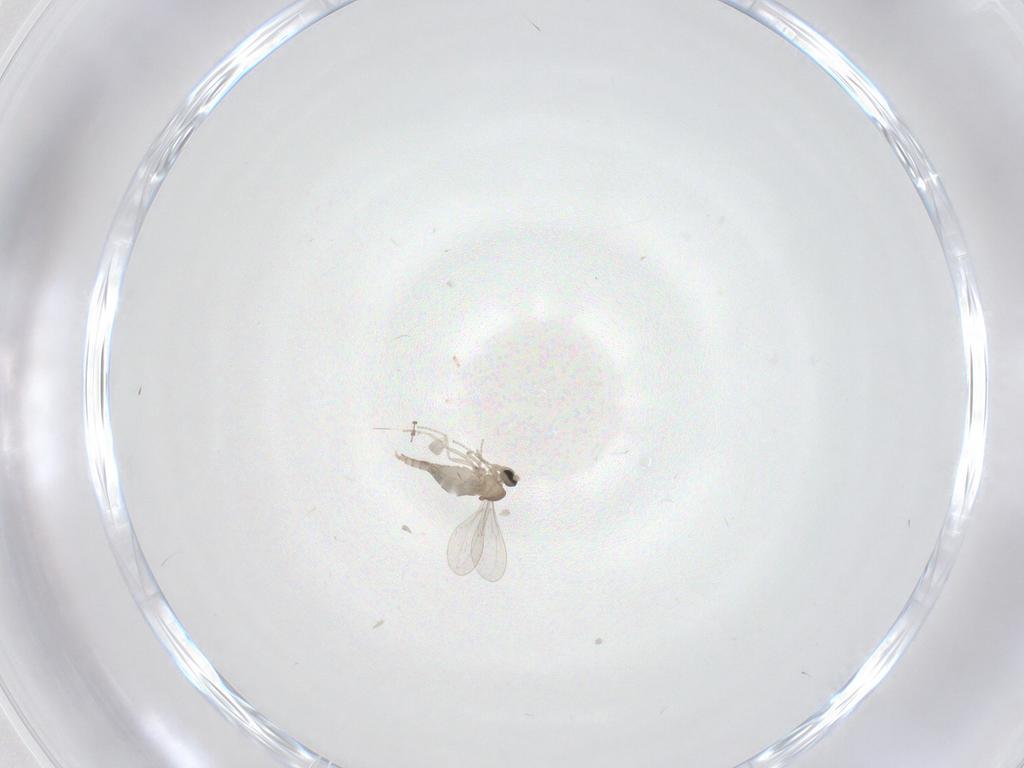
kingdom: Animalia
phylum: Arthropoda
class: Insecta
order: Diptera
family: Cecidomyiidae
